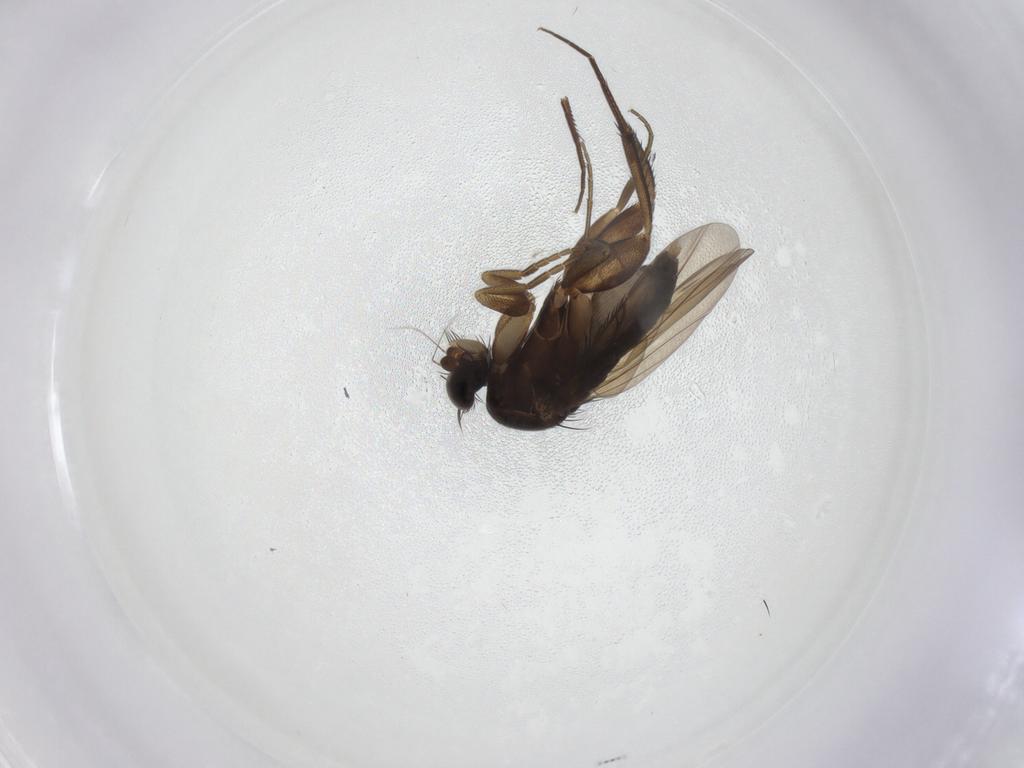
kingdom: Animalia
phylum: Arthropoda
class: Insecta
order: Diptera
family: Phoridae
